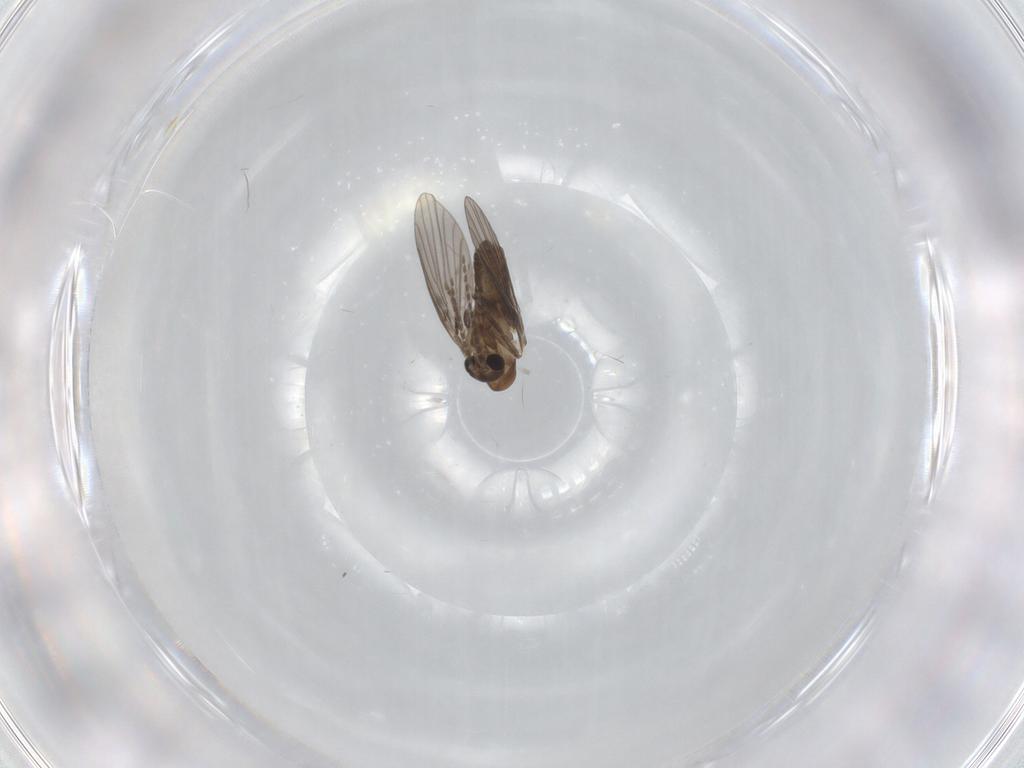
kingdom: Animalia
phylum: Arthropoda
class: Insecta
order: Diptera
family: Psychodidae
